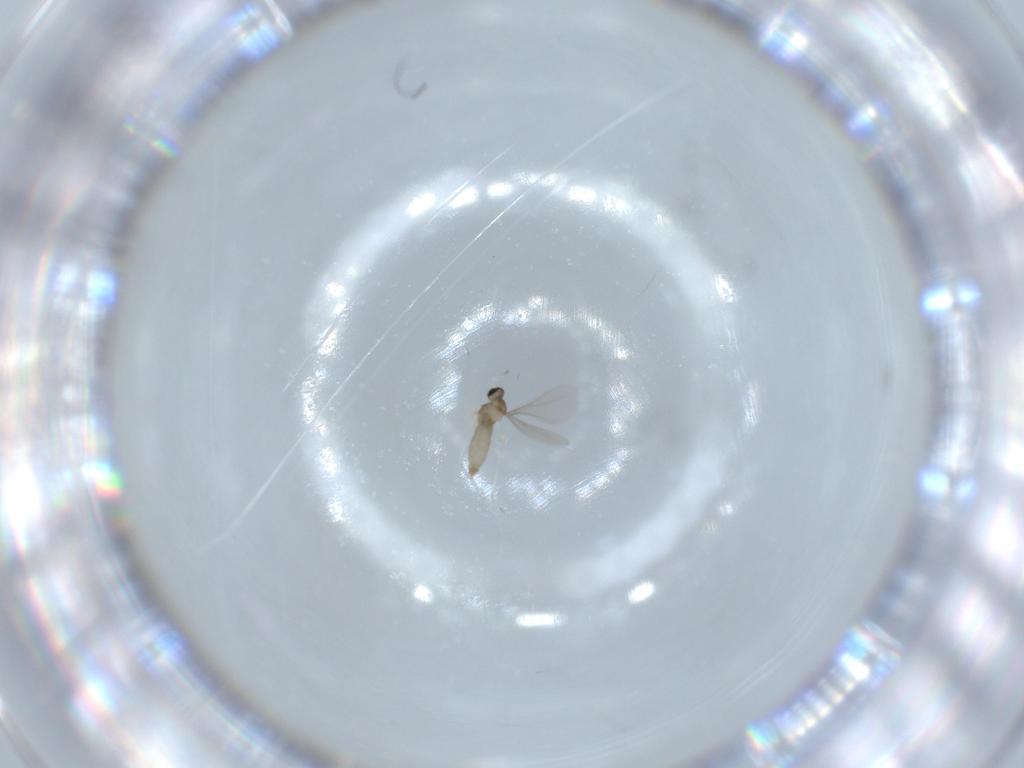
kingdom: Animalia
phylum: Arthropoda
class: Insecta
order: Diptera
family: Cecidomyiidae
